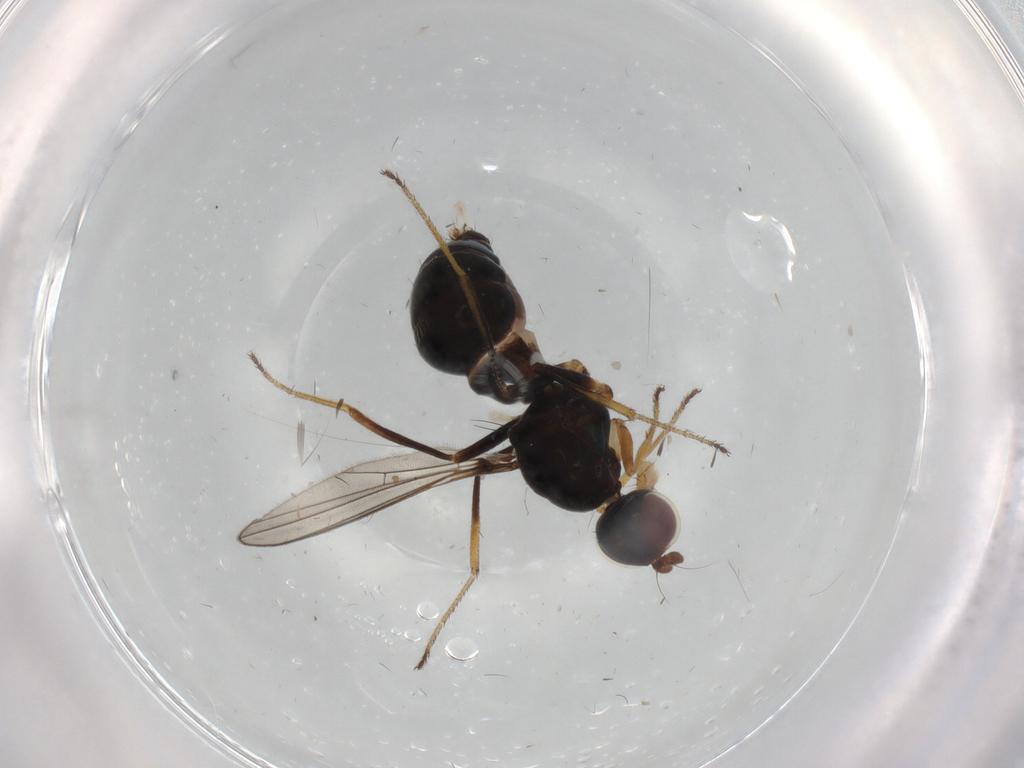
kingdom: Animalia
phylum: Arthropoda
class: Insecta
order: Diptera
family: Sepsidae
